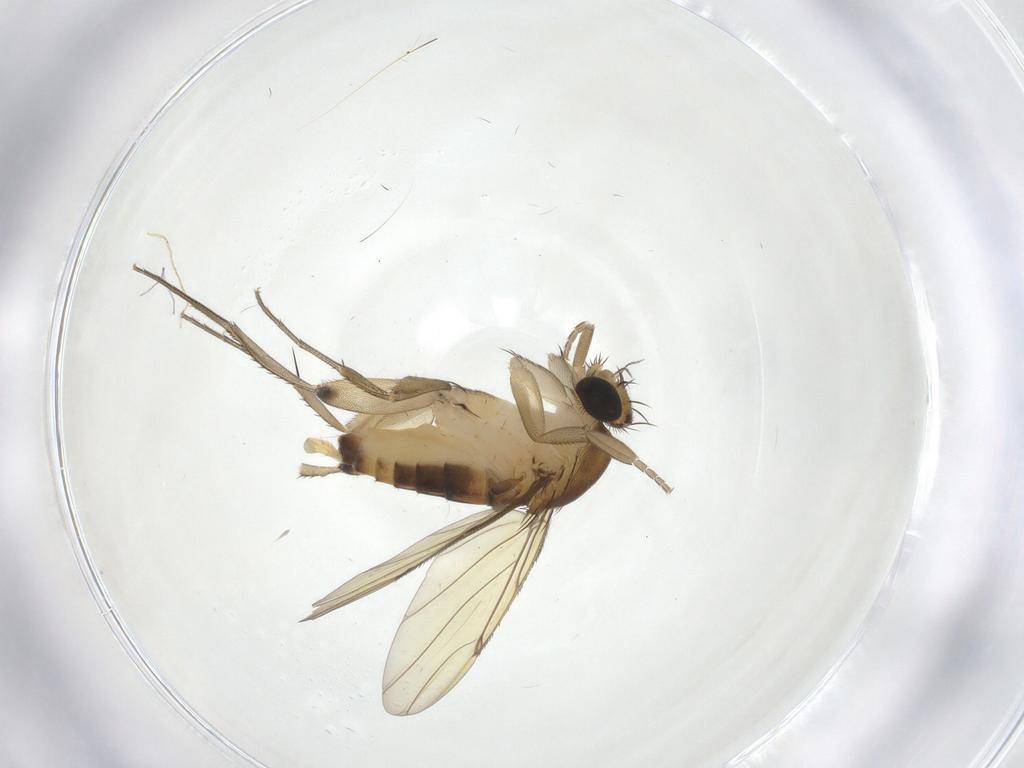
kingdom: Animalia
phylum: Arthropoda
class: Insecta
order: Diptera
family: Phoridae
